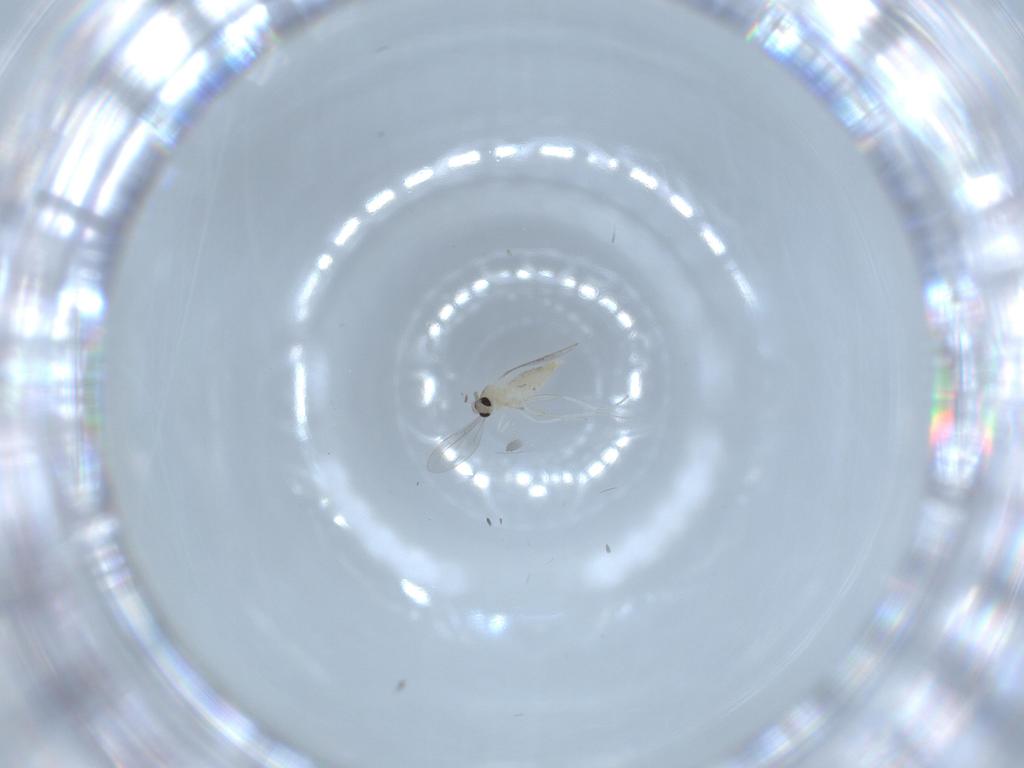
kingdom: Animalia
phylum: Arthropoda
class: Insecta
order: Diptera
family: Cecidomyiidae
